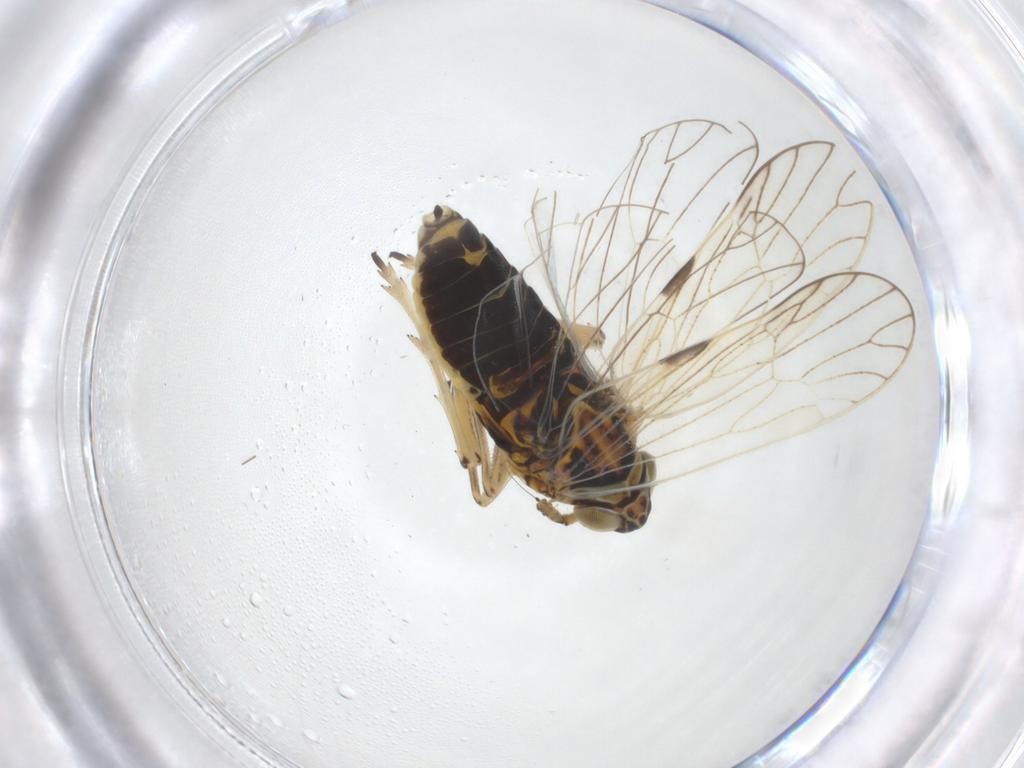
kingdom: Animalia
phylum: Arthropoda
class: Insecta
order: Hemiptera
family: Delphacidae
